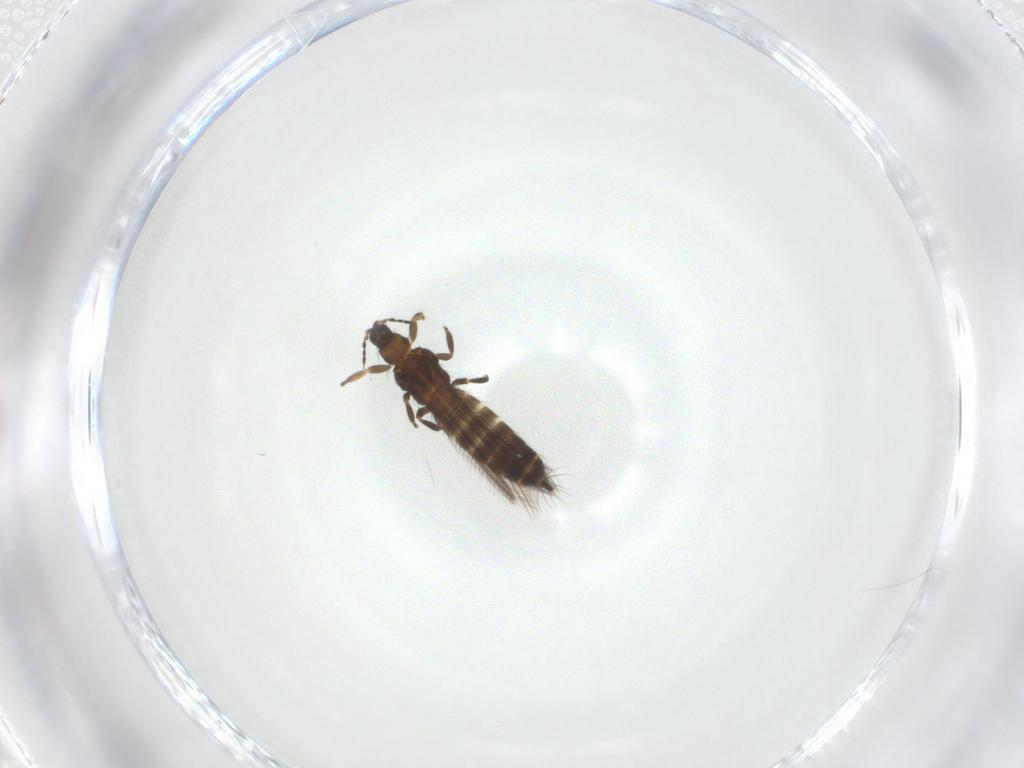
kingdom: Animalia
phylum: Arthropoda
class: Insecta
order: Thysanoptera
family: Thripidae
